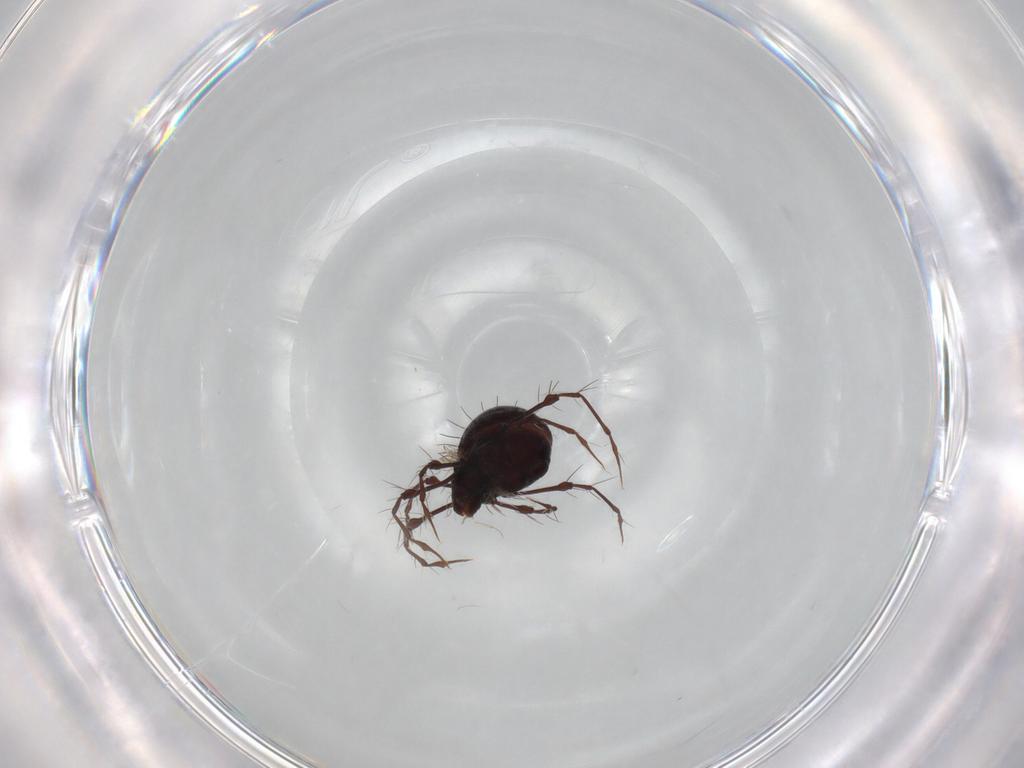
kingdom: Animalia
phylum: Arthropoda
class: Arachnida
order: Sarcoptiformes
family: Damaeidae
